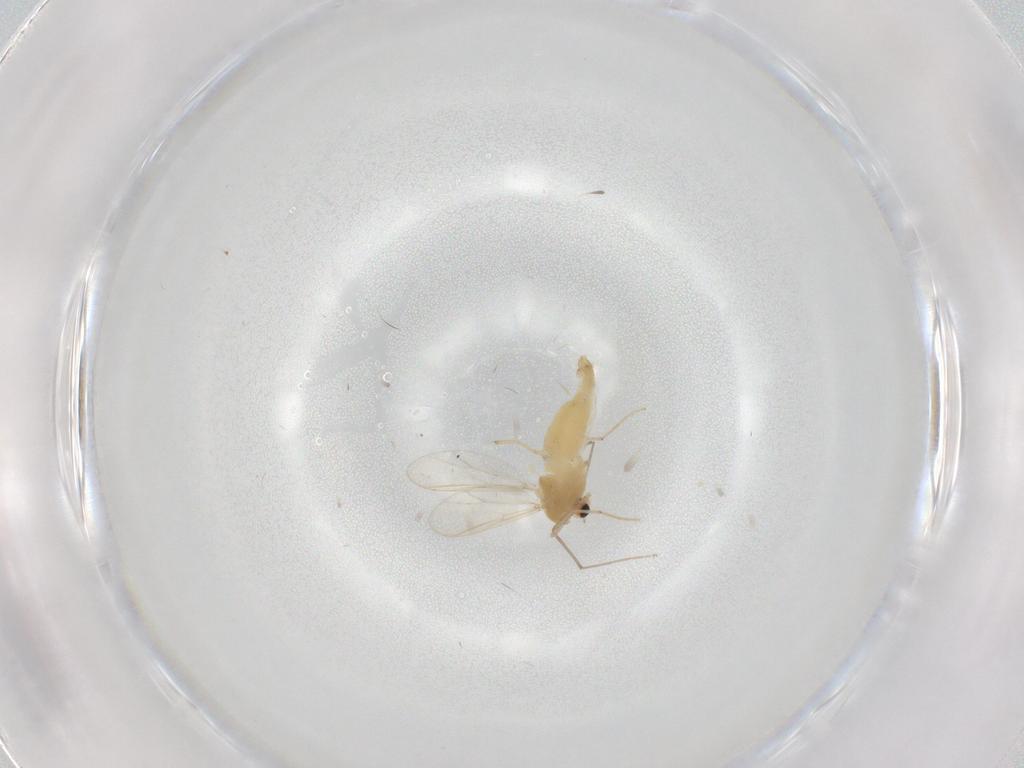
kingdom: Animalia
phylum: Arthropoda
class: Insecta
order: Diptera
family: Chironomidae
